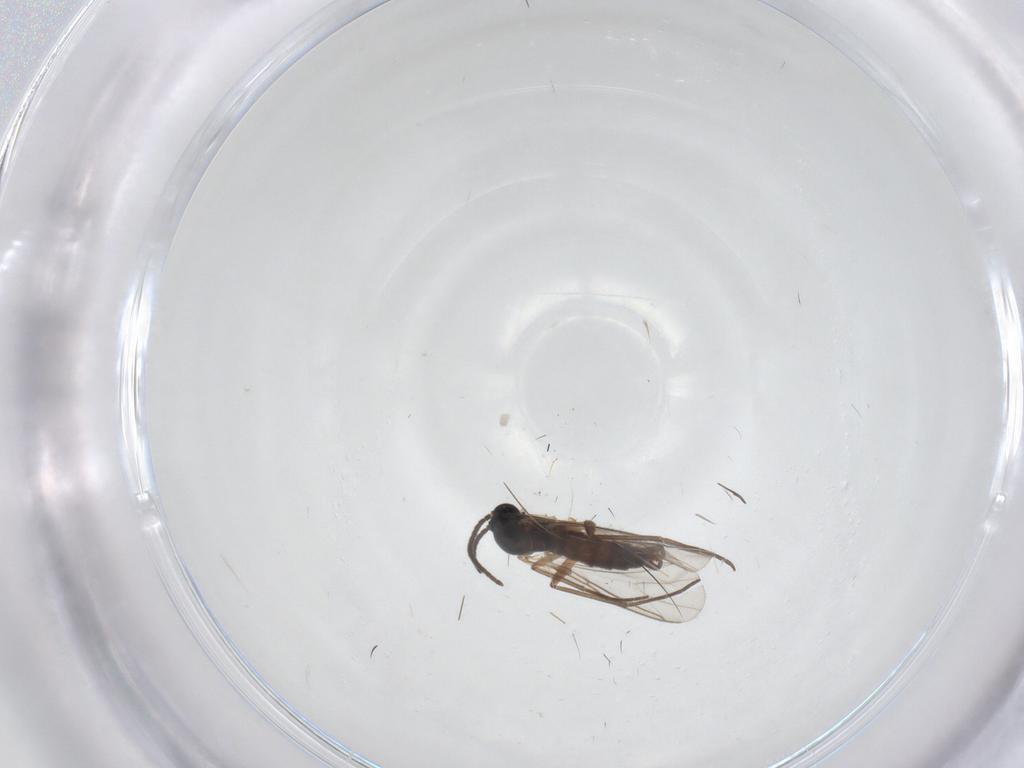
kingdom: Animalia
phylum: Arthropoda
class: Insecta
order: Diptera
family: Sciaridae
